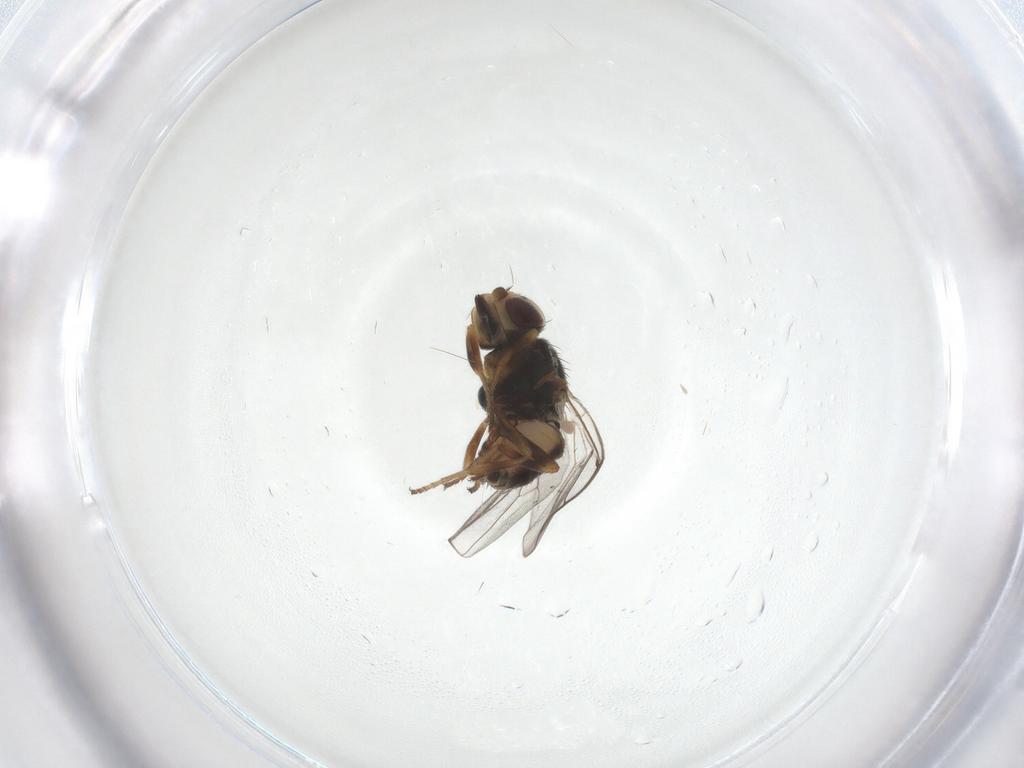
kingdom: Animalia
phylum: Arthropoda
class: Insecta
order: Diptera
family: Chloropidae
